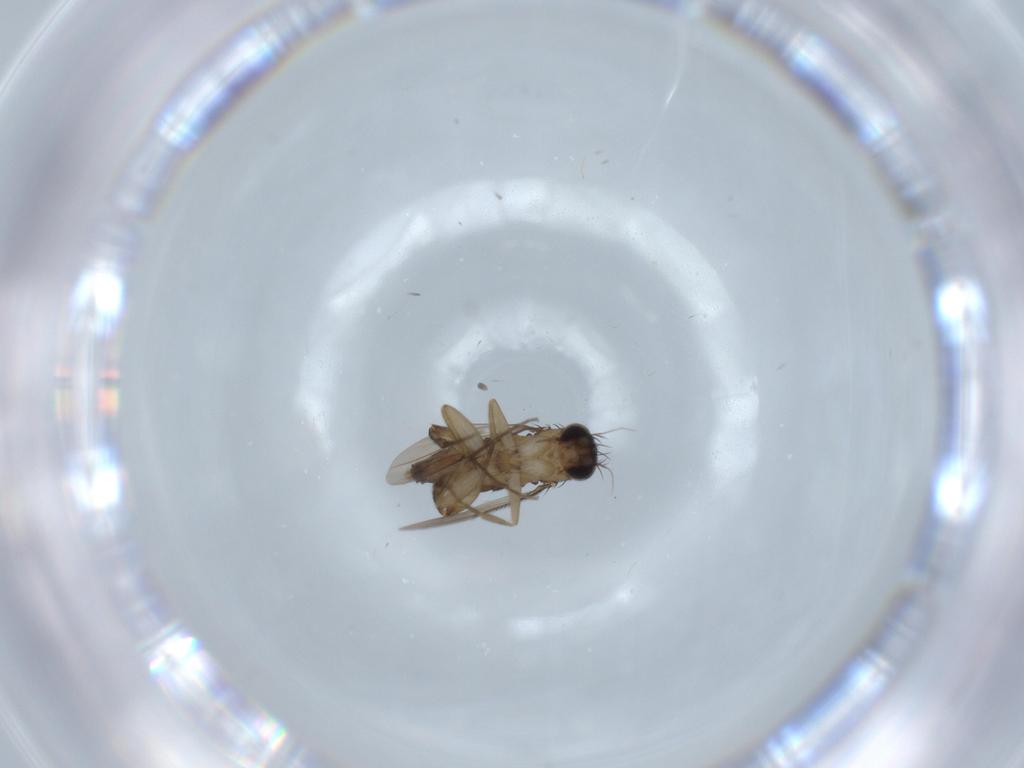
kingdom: Animalia
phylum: Arthropoda
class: Insecta
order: Diptera
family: Phoridae
